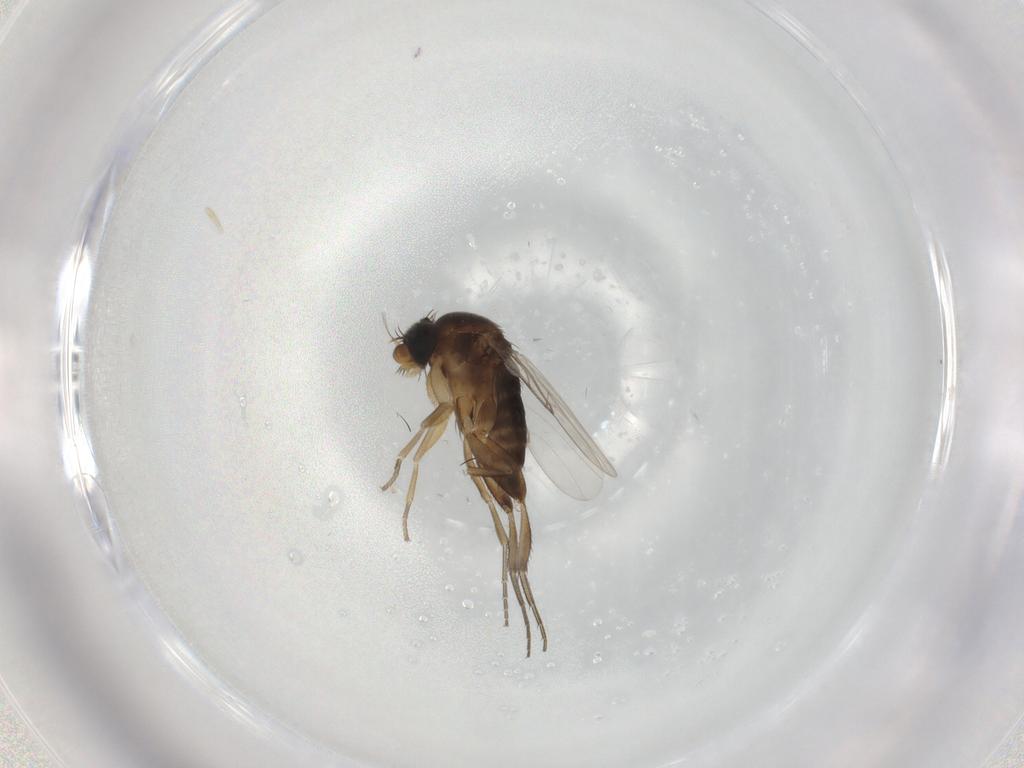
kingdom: Animalia
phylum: Arthropoda
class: Insecta
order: Diptera
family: Phoridae
